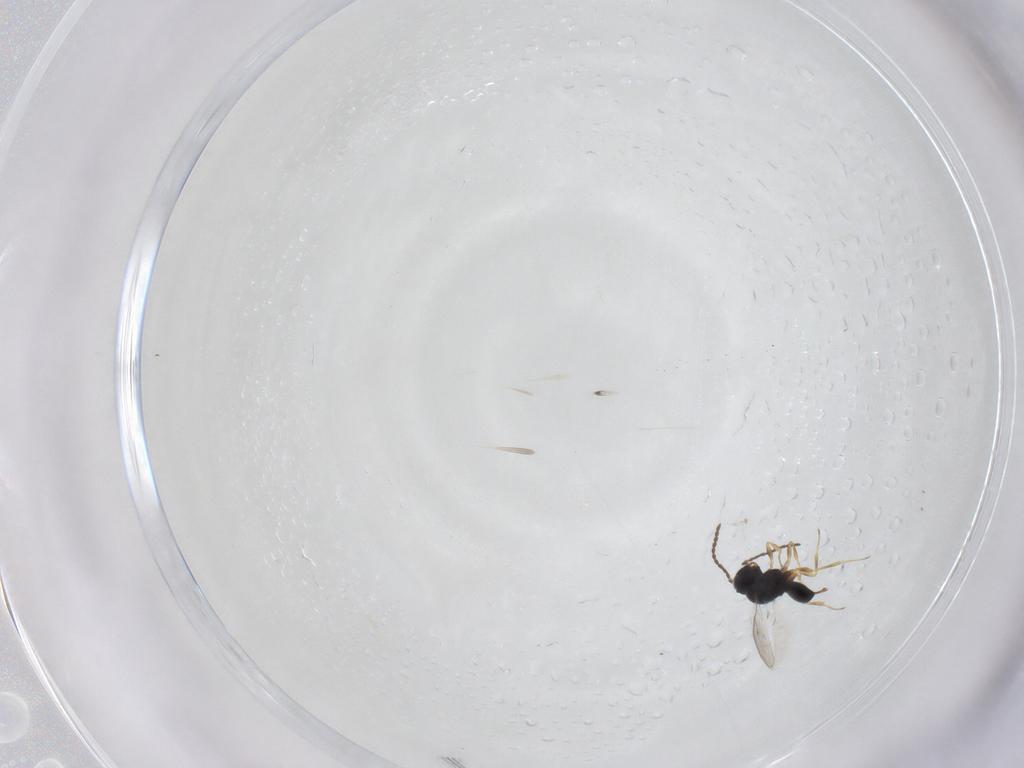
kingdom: Animalia
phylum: Arthropoda
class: Insecta
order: Hymenoptera
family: Scelionidae
